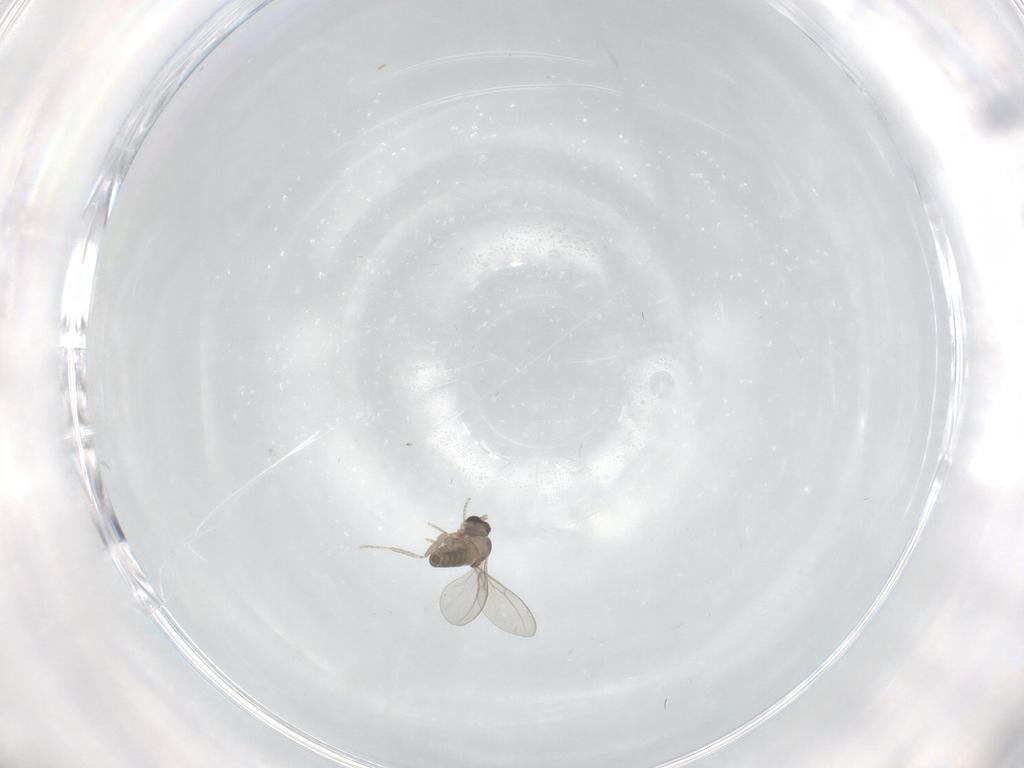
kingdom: Animalia
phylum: Arthropoda
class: Insecta
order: Diptera
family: Cecidomyiidae
